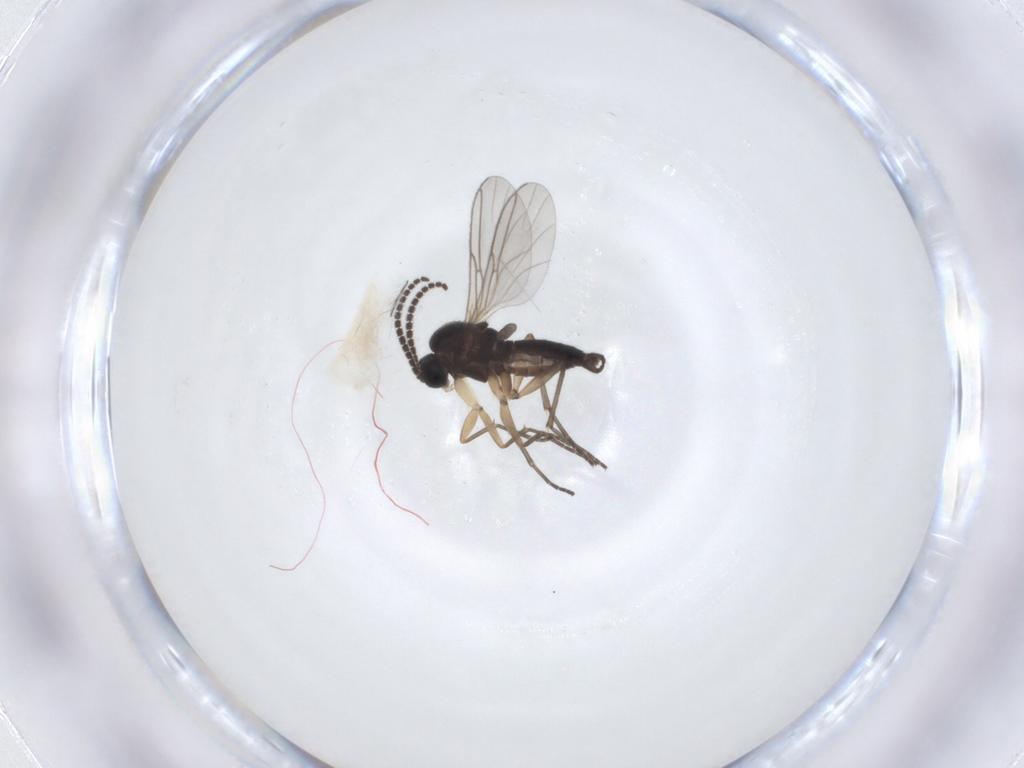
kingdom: Animalia
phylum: Arthropoda
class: Insecta
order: Diptera
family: Sciaridae
